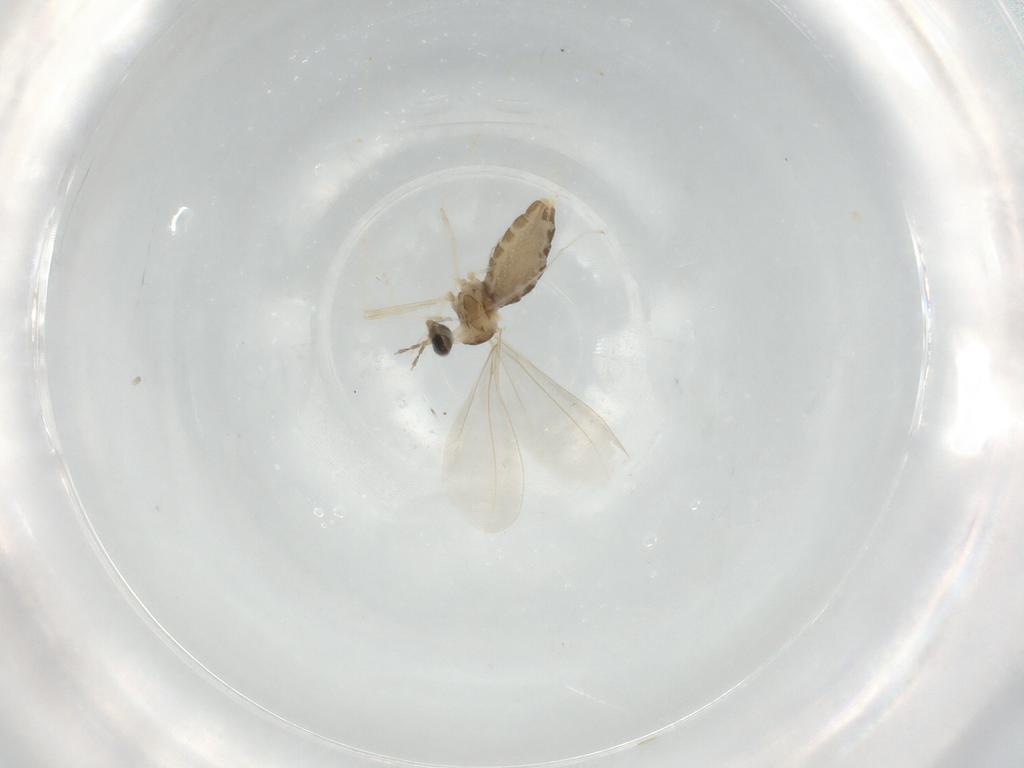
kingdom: Animalia
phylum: Arthropoda
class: Insecta
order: Diptera
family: Cecidomyiidae
